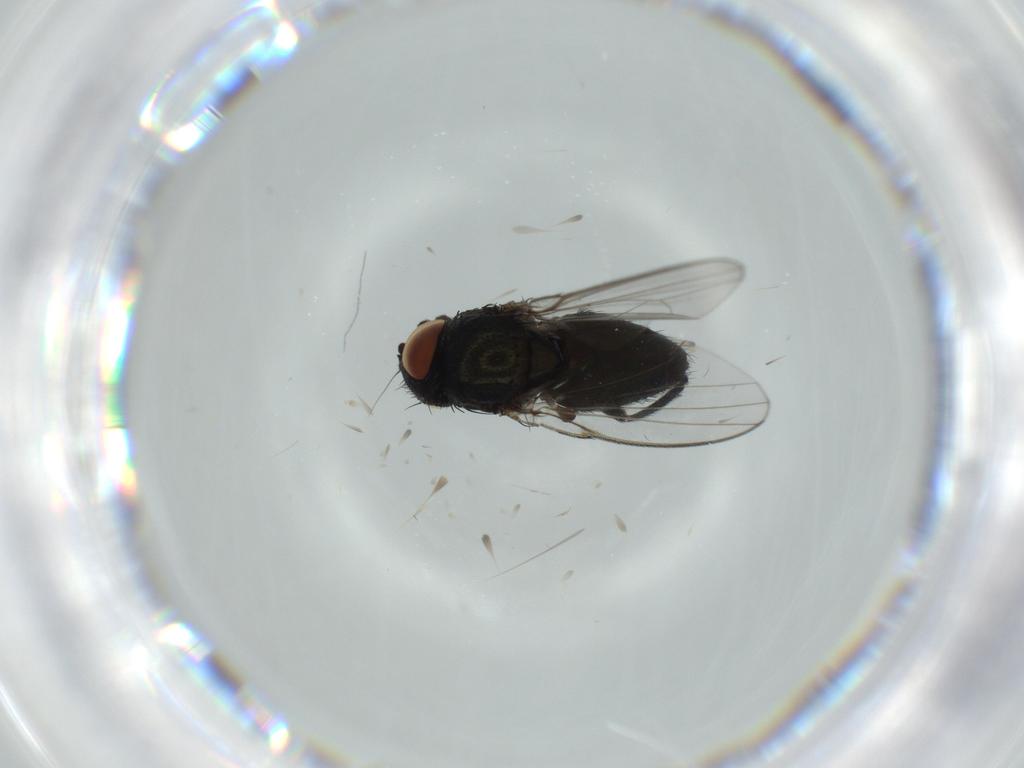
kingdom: Animalia
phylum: Arthropoda
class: Insecta
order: Diptera
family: Milichiidae
